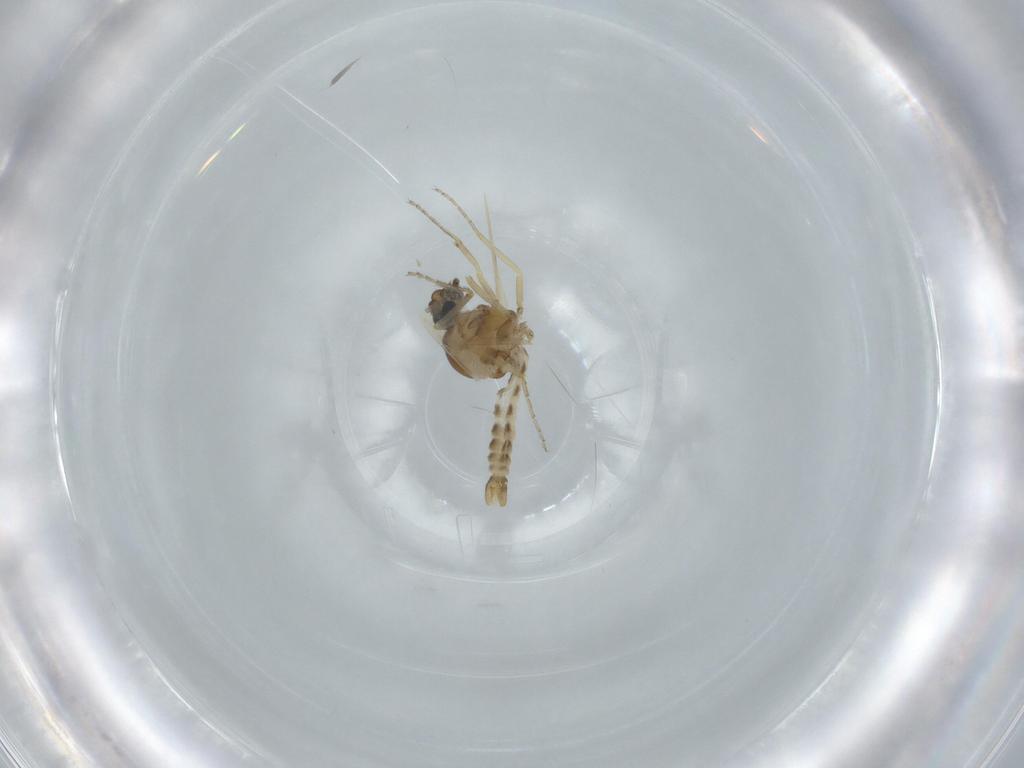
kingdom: Animalia
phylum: Arthropoda
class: Insecta
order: Diptera
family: Ceratopogonidae
